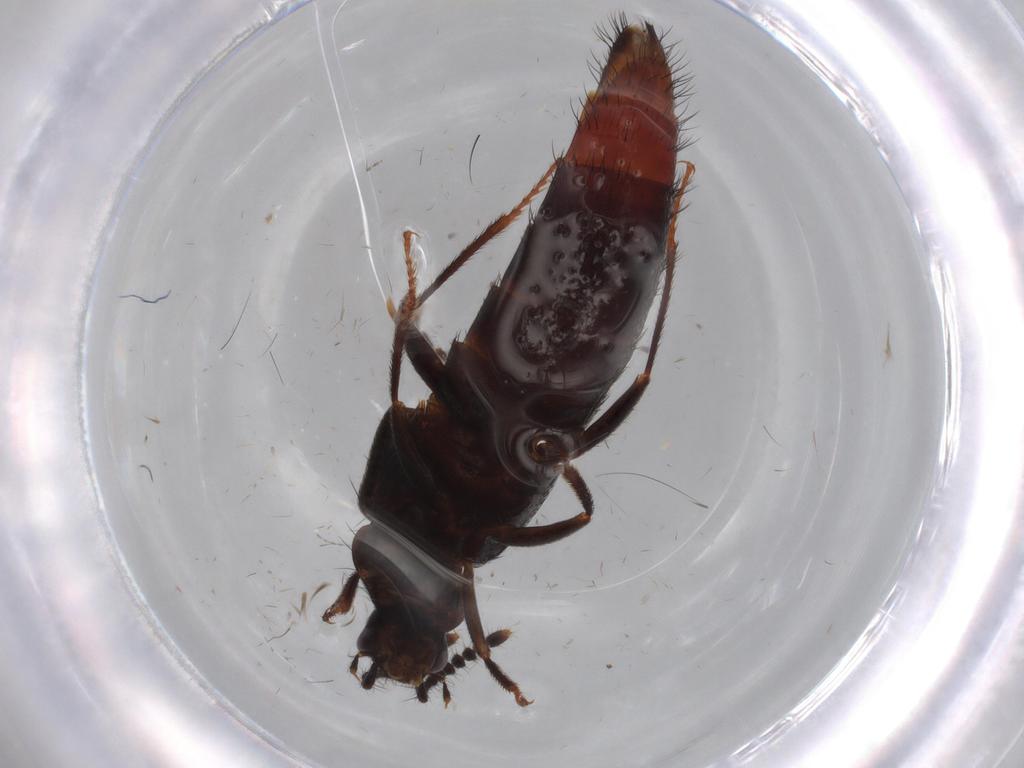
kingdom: Animalia
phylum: Arthropoda
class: Insecta
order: Coleoptera
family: Melandryidae
